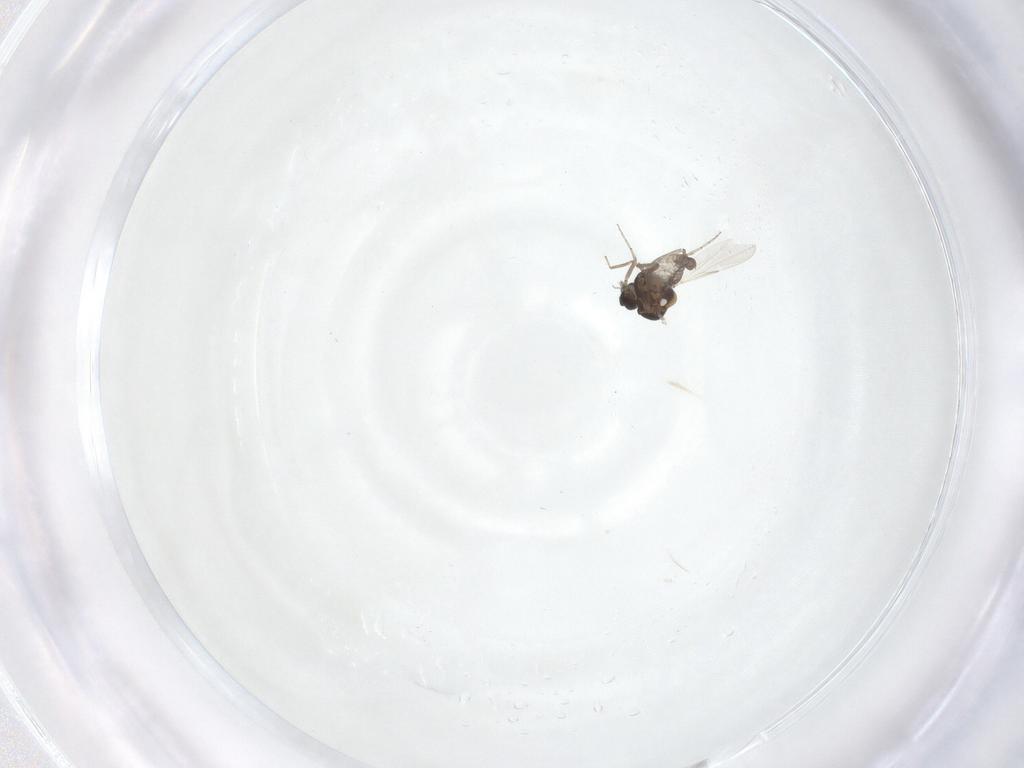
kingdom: Animalia
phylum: Arthropoda
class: Insecta
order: Diptera
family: Ceratopogonidae
